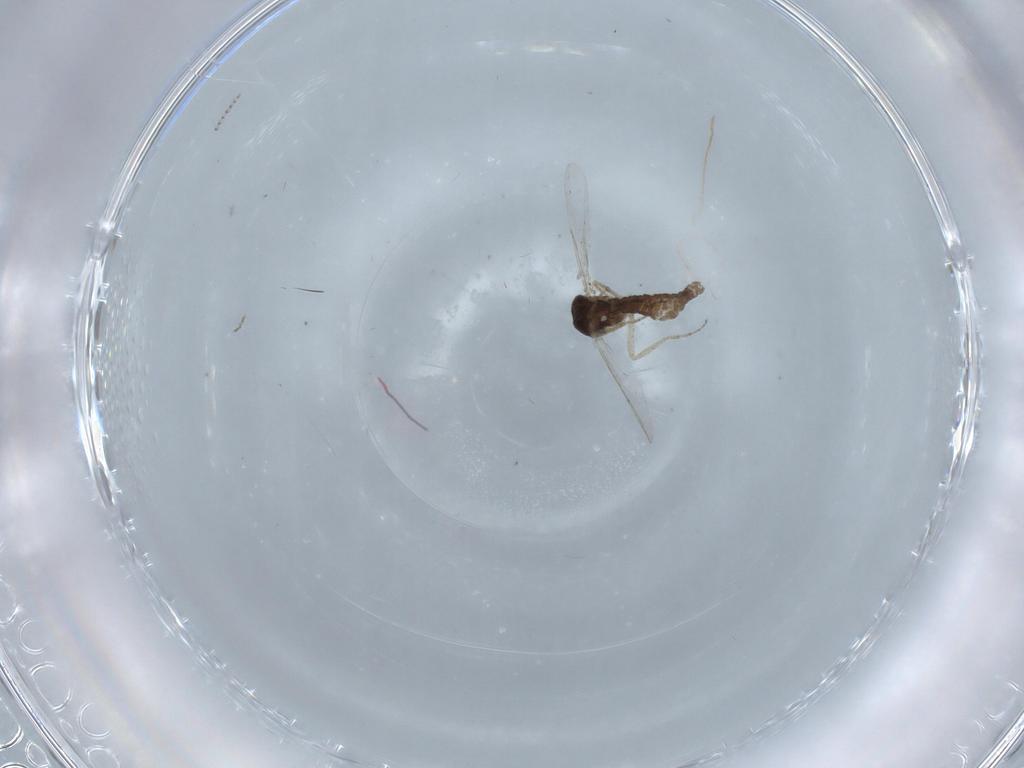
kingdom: Animalia
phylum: Arthropoda
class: Insecta
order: Diptera
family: Ceratopogonidae
